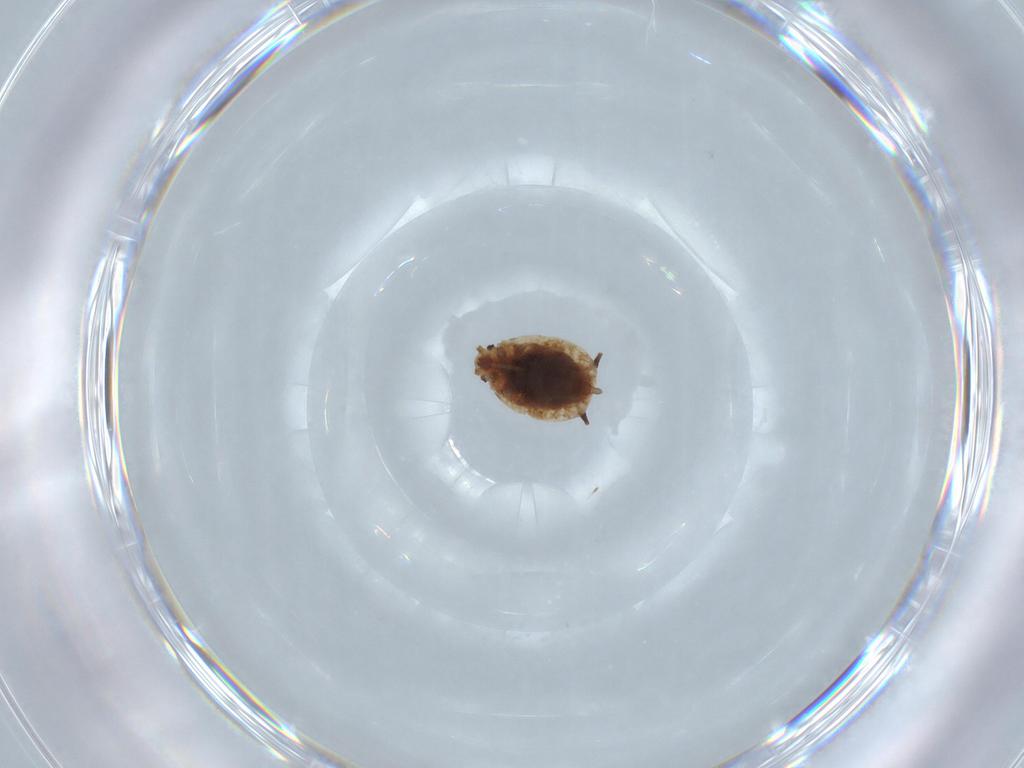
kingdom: Animalia
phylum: Arthropoda
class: Insecta
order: Hemiptera
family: Aphididae
